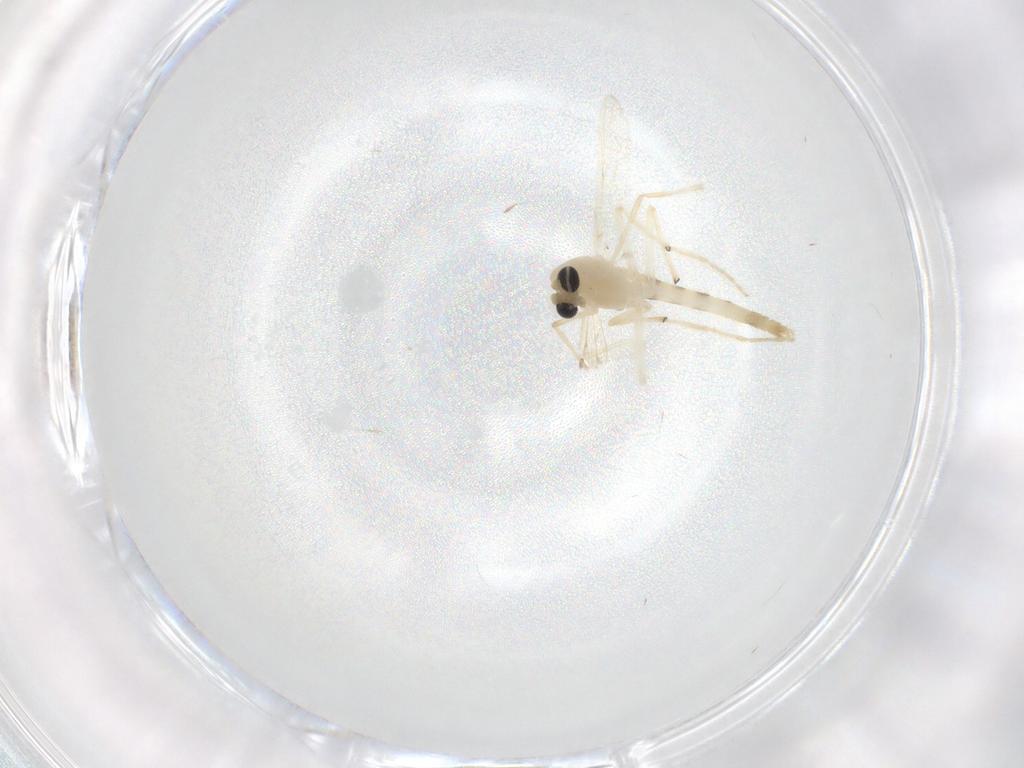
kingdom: Animalia
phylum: Arthropoda
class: Insecta
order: Diptera
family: Chironomidae
